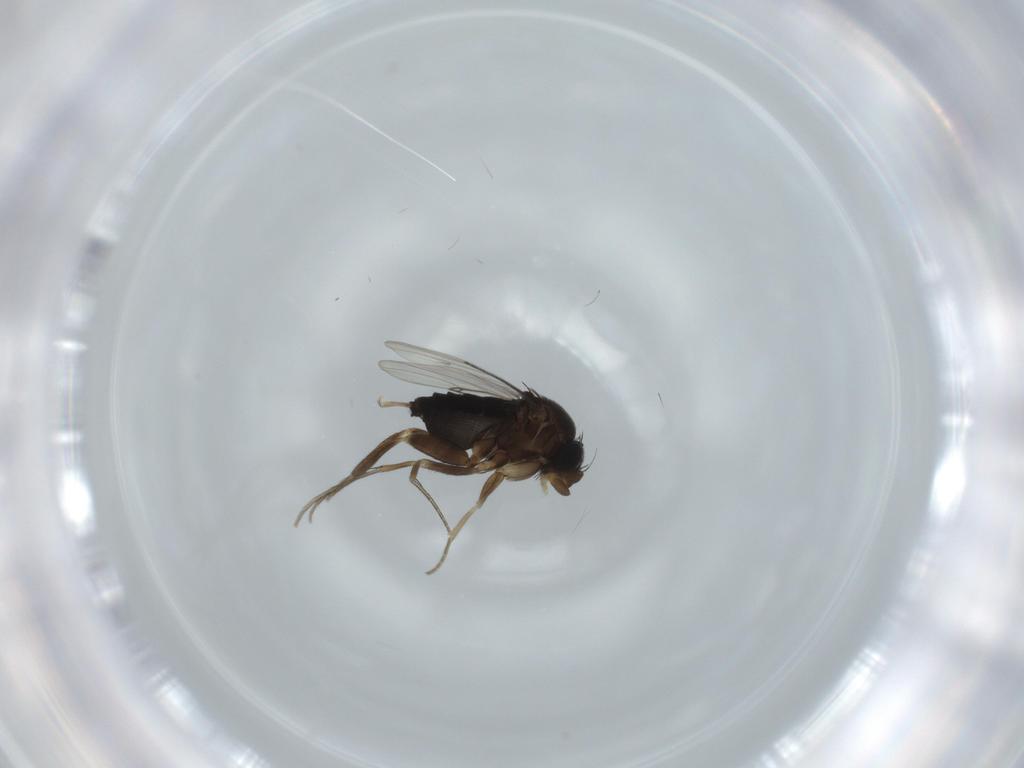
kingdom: Animalia
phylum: Arthropoda
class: Insecta
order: Diptera
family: Phoridae
